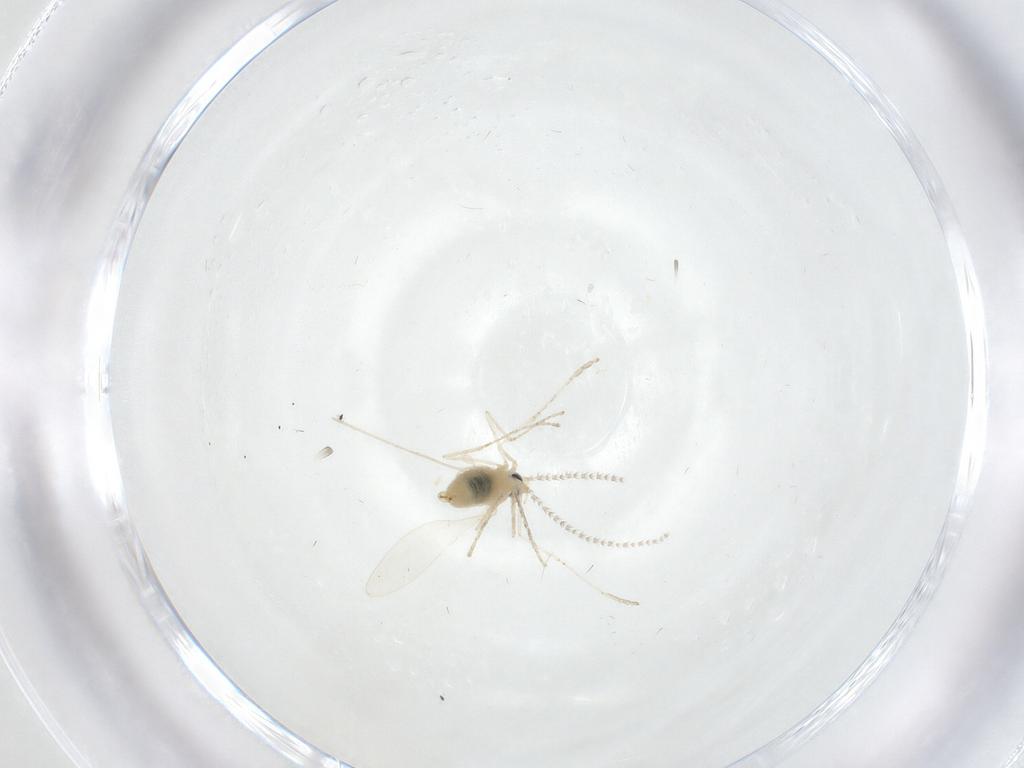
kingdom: Animalia
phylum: Arthropoda
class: Insecta
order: Diptera
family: Cecidomyiidae
